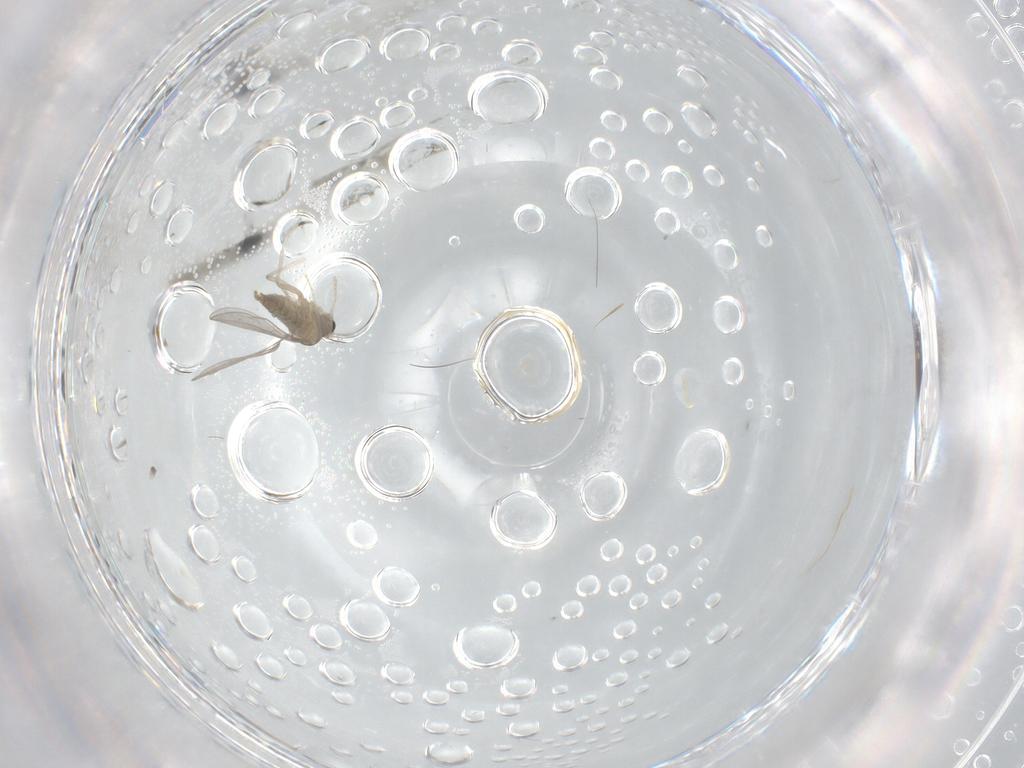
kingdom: Animalia
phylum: Arthropoda
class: Insecta
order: Diptera
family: Cecidomyiidae
